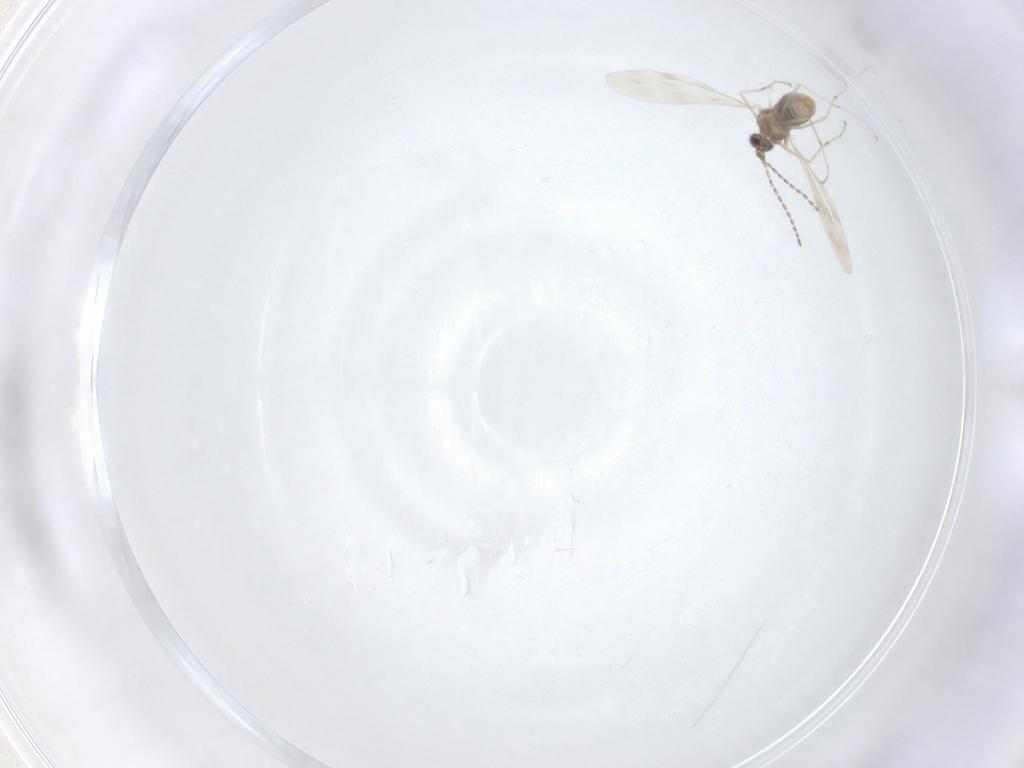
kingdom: Animalia
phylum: Arthropoda
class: Insecta
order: Diptera
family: Cecidomyiidae
